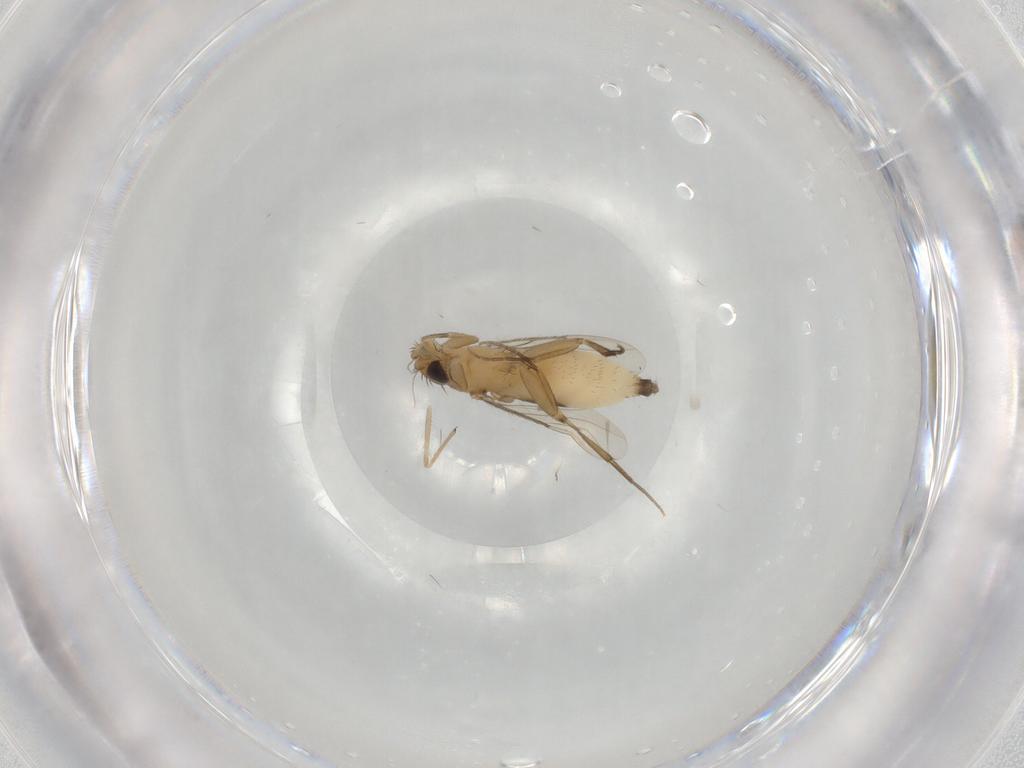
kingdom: Animalia
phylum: Arthropoda
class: Insecta
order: Diptera
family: Phoridae
